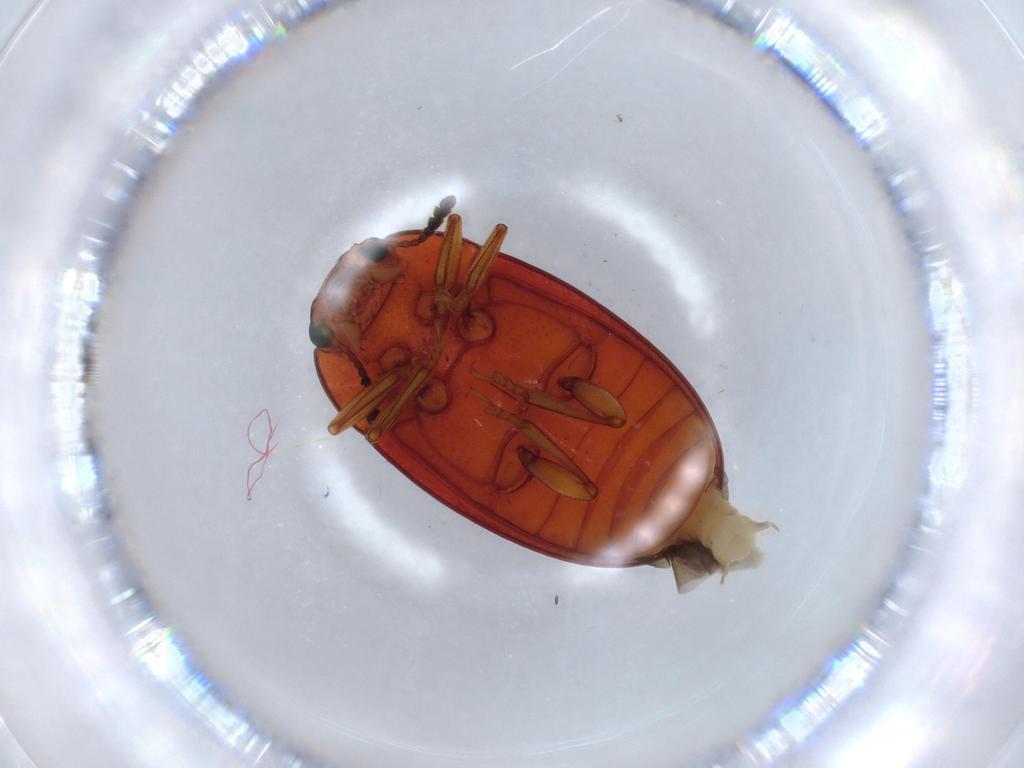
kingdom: Animalia
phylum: Arthropoda
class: Insecta
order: Coleoptera
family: Erotylidae
